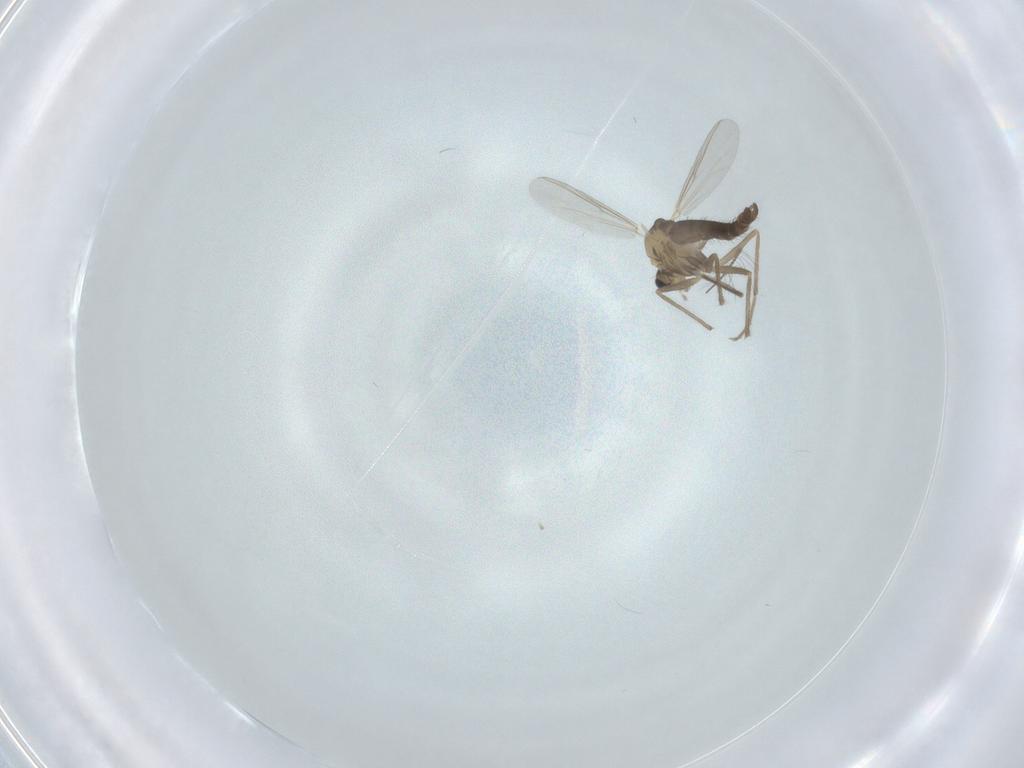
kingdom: Animalia
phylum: Arthropoda
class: Insecta
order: Diptera
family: Chironomidae
